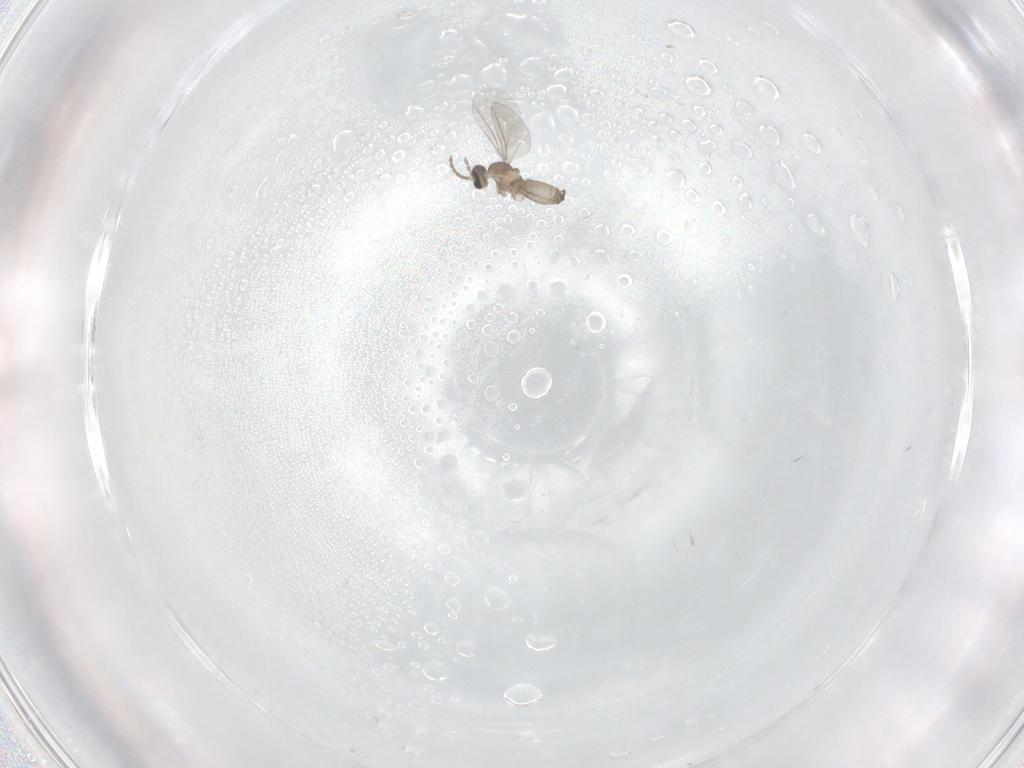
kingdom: Animalia
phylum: Arthropoda
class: Insecta
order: Diptera
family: Cecidomyiidae
